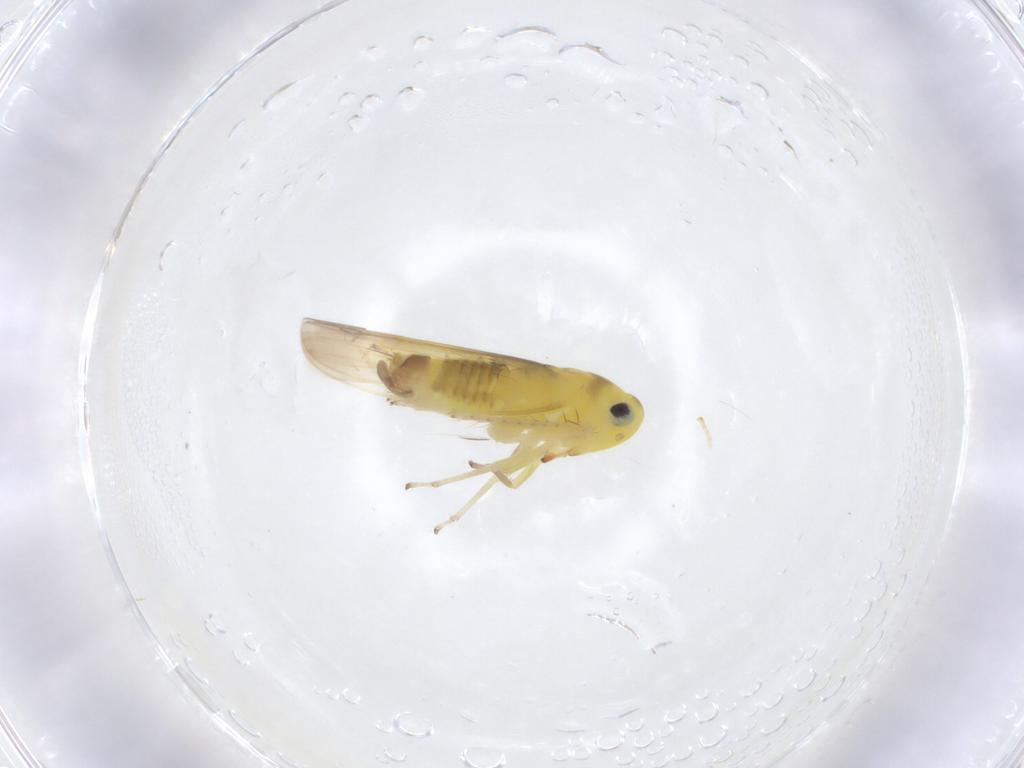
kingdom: Animalia
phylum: Arthropoda
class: Insecta
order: Hemiptera
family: Cicadellidae
